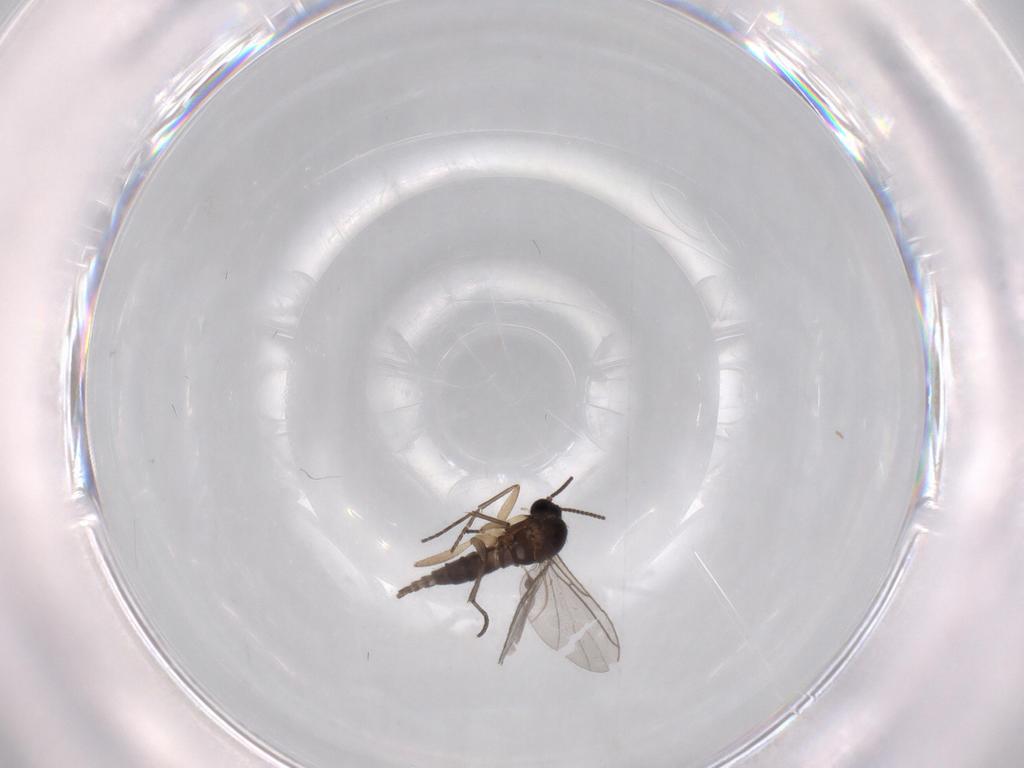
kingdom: Animalia
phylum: Arthropoda
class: Insecta
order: Diptera
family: Sciaridae
